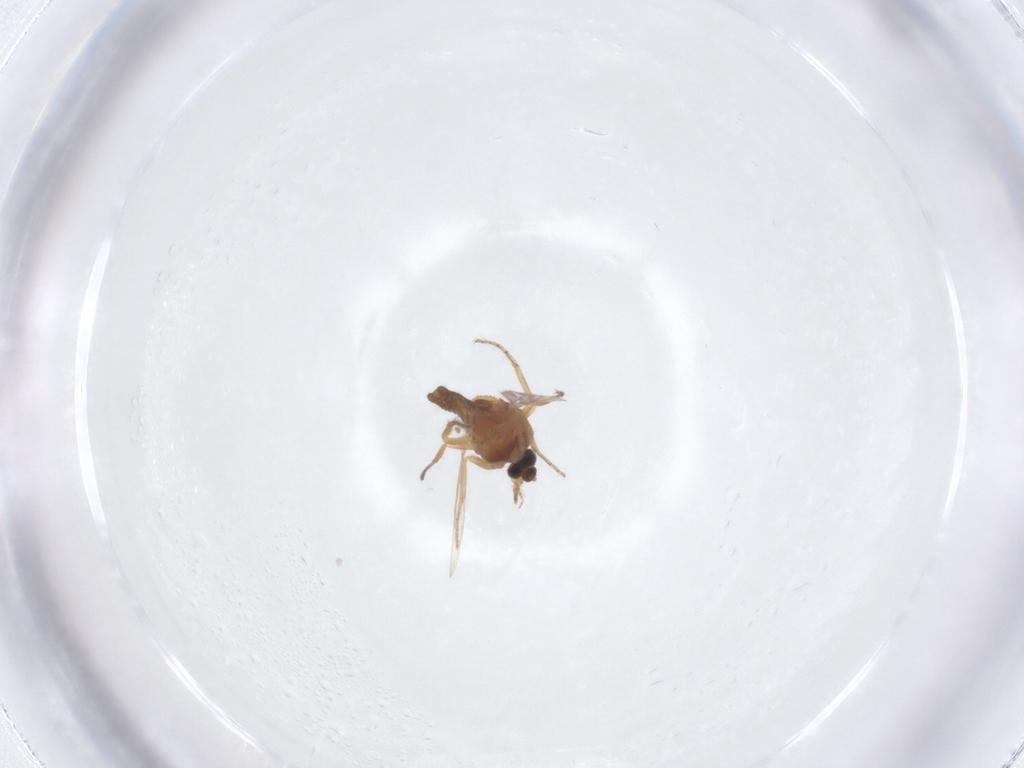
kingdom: Animalia
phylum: Arthropoda
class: Insecta
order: Diptera
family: Ceratopogonidae
